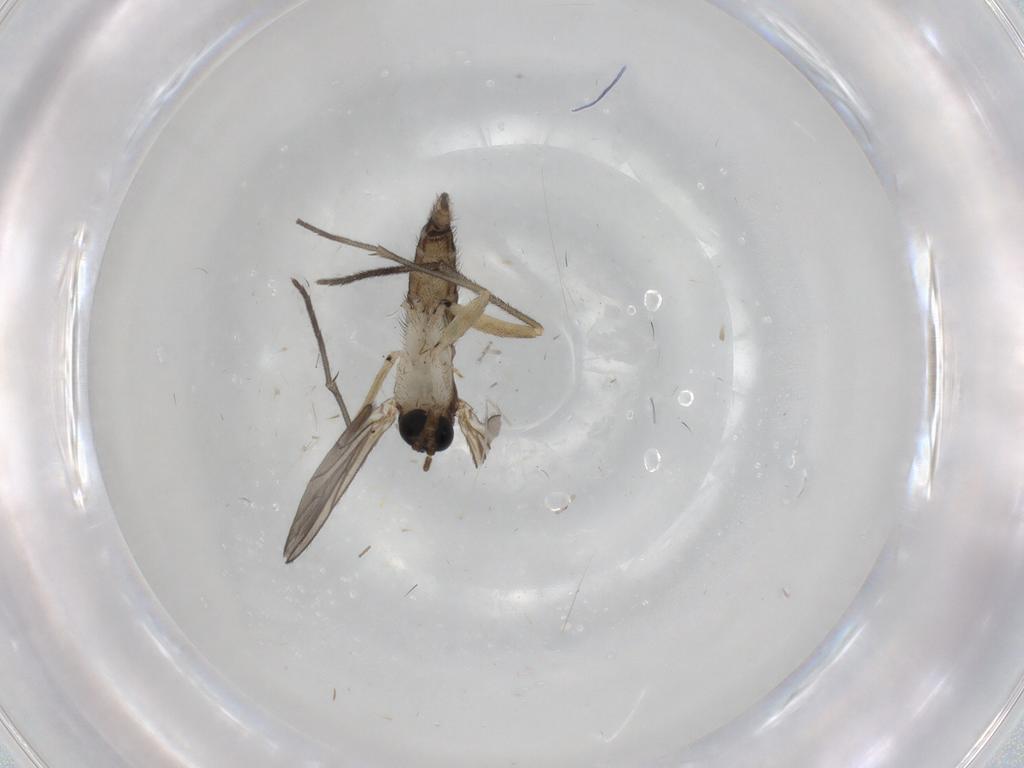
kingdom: Animalia
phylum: Arthropoda
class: Insecta
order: Diptera
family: Sciaridae
